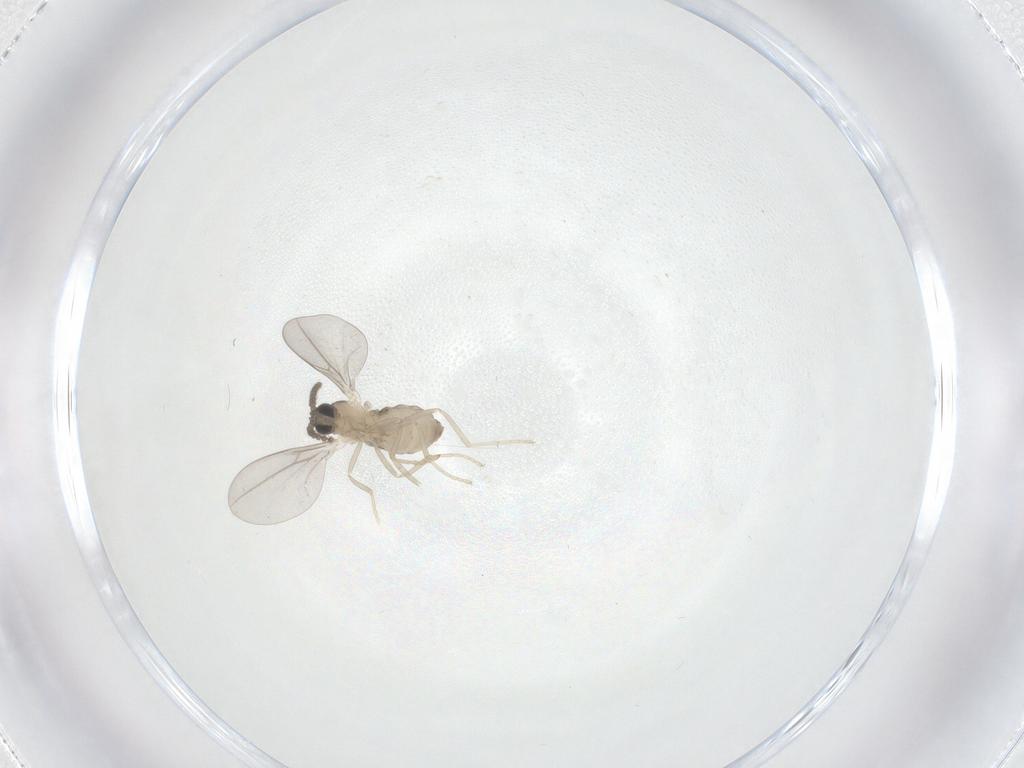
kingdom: Animalia
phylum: Arthropoda
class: Insecta
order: Diptera
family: Cecidomyiidae
